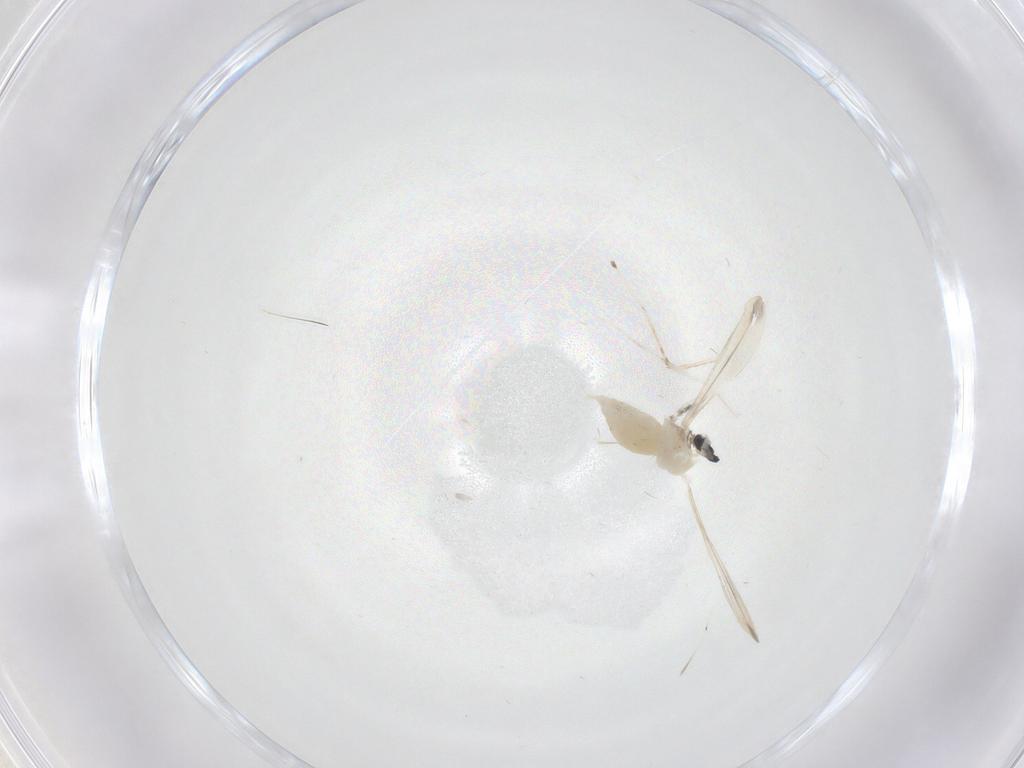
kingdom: Animalia
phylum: Arthropoda
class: Insecta
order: Diptera
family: Cecidomyiidae
